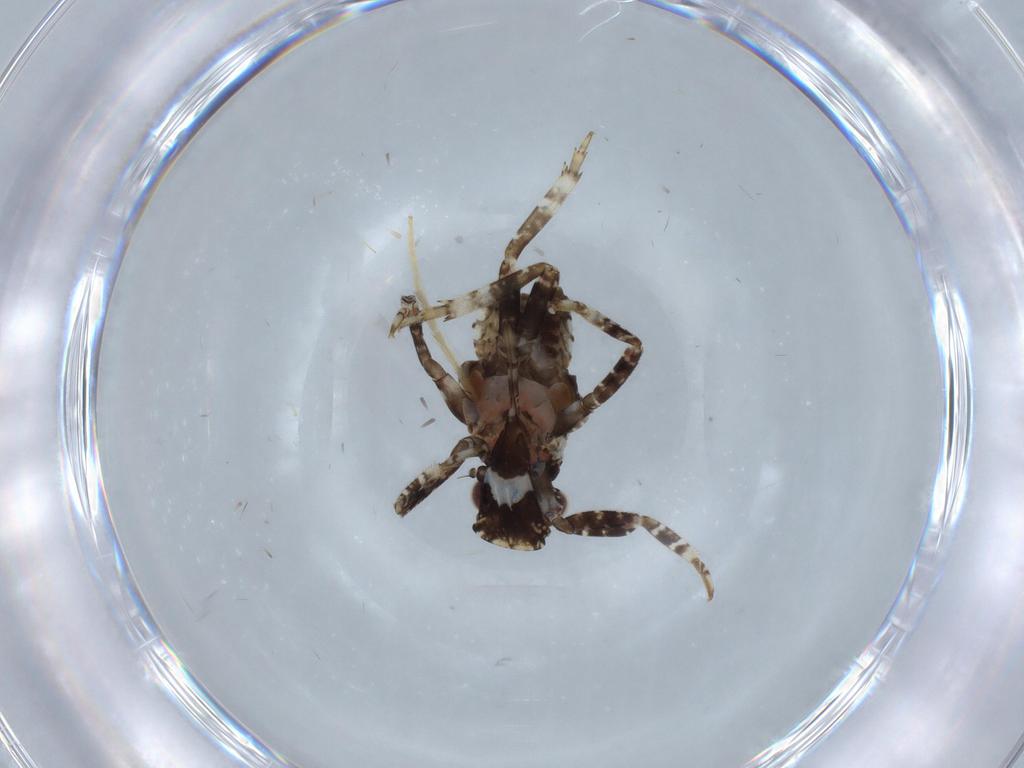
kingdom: Animalia
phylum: Arthropoda
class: Insecta
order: Hemiptera
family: Fulgoridae
